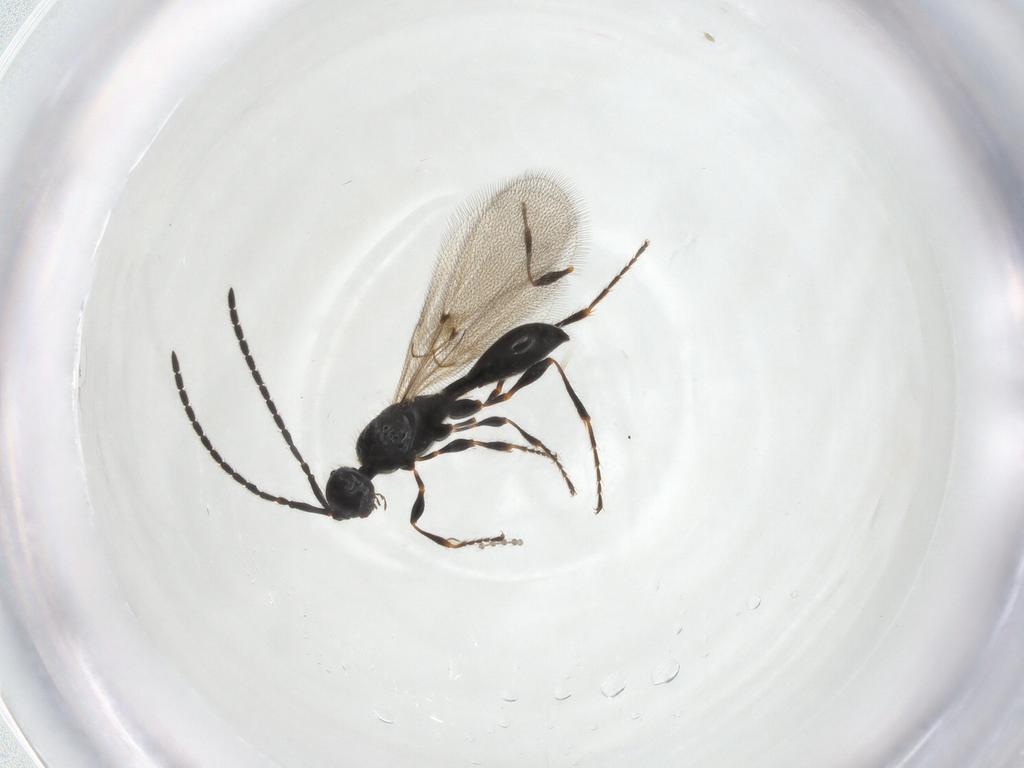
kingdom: Animalia
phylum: Arthropoda
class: Insecta
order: Hymenoptera
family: Diapriidae
